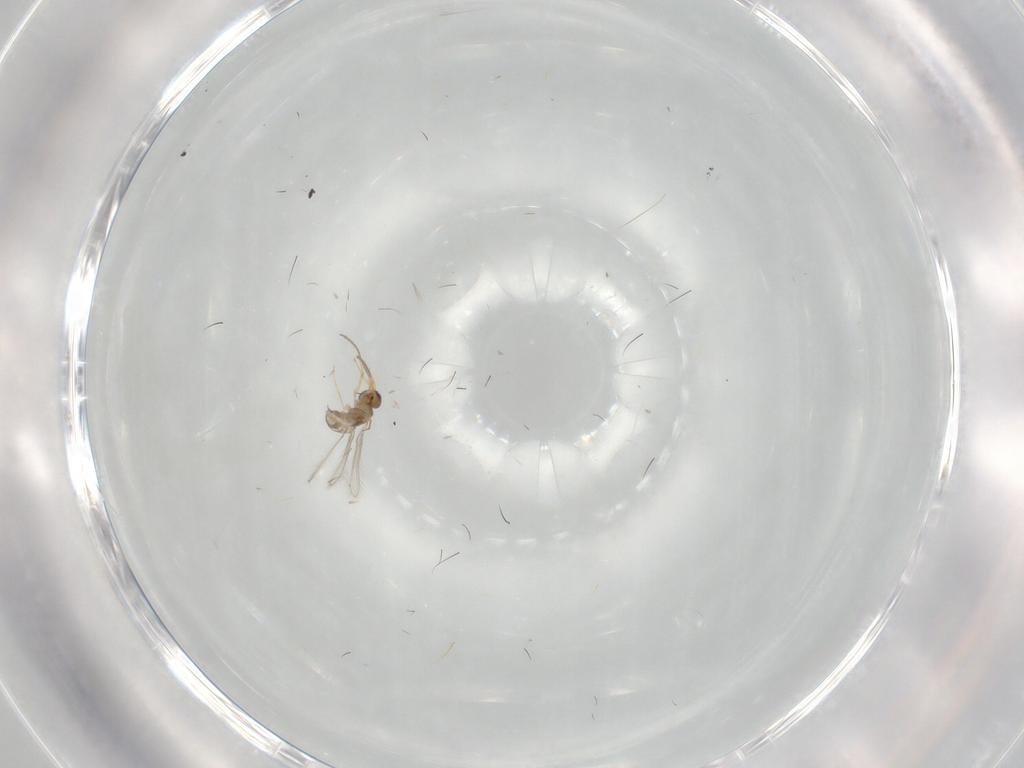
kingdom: Animalia
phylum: Arthropoda
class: Insecta
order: Hymenoptera
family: Mymaridae
